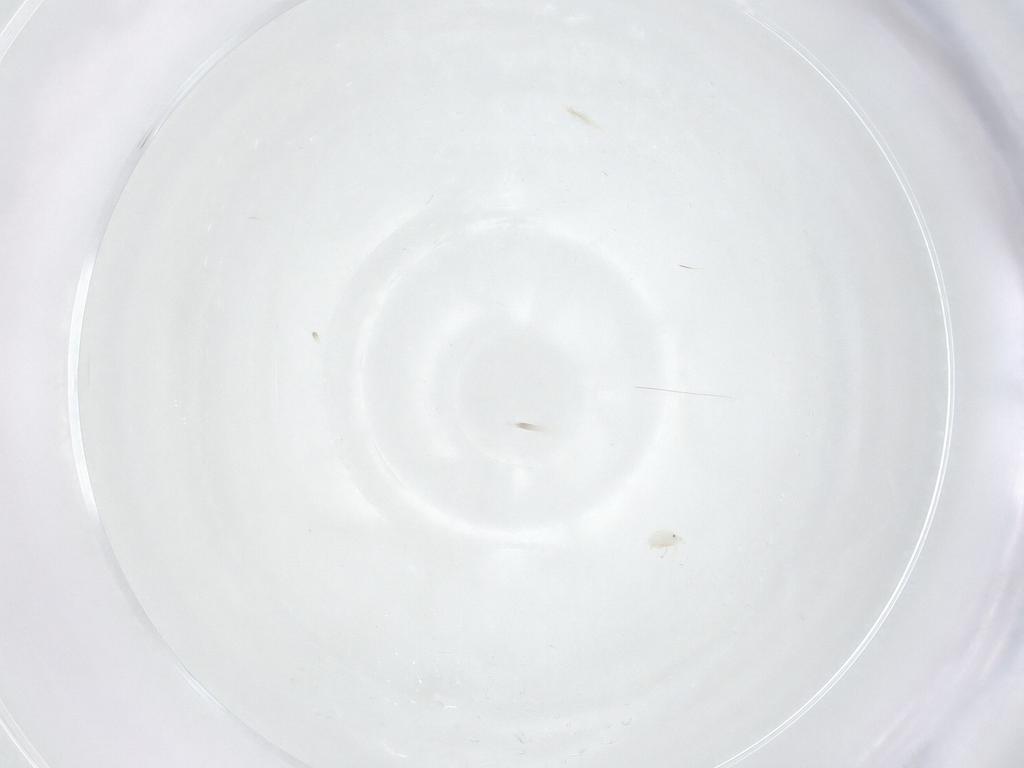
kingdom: Animalia
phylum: Arthropoda
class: Insecta
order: Diptera
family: Chironomidae
